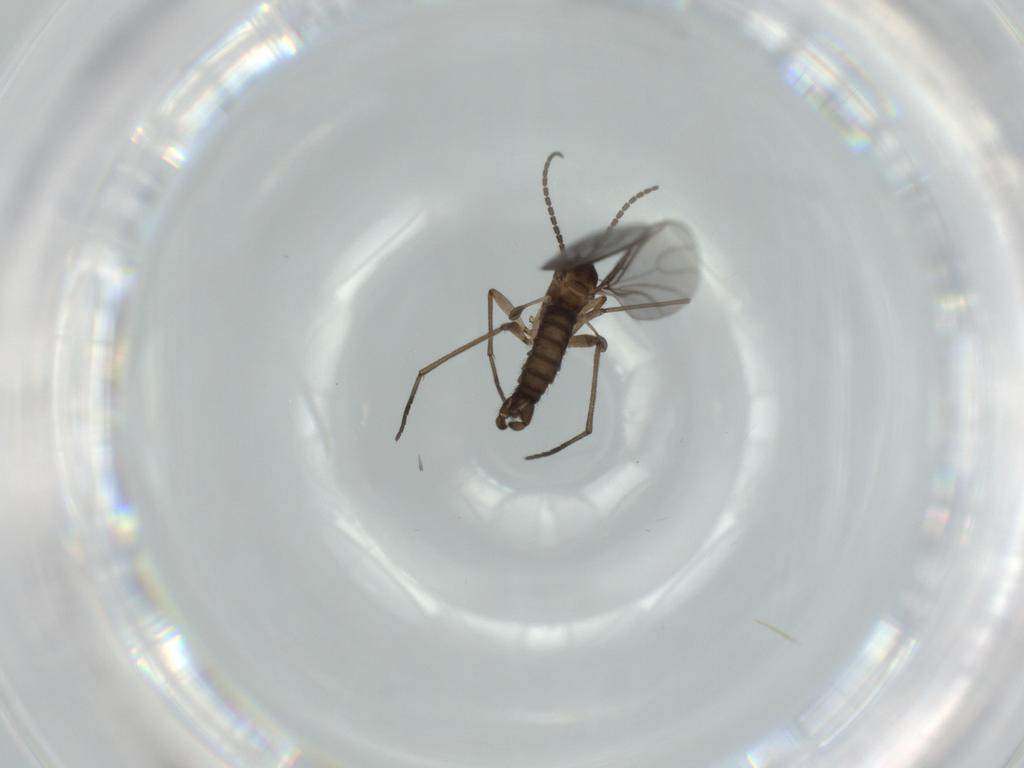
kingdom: Animalia
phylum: Arthropoda
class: Insecta
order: Diptera
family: Sciaridae
